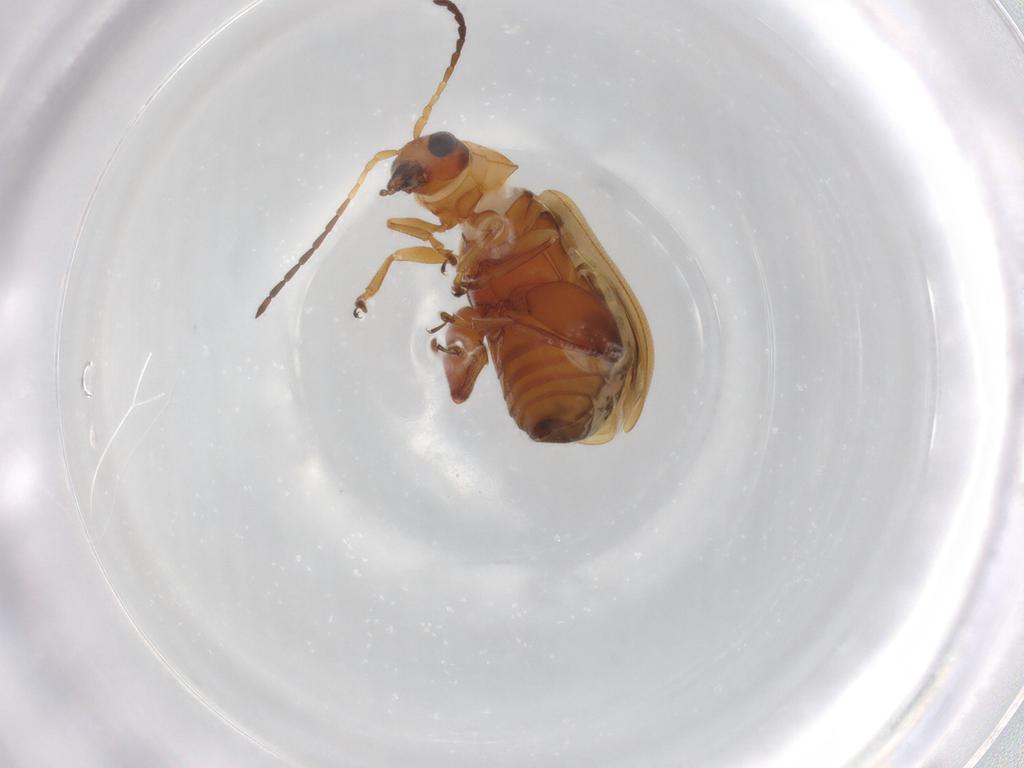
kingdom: Animalia
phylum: Arthropoda
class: Insecta
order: Coleoptera
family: Chrysomelidae
